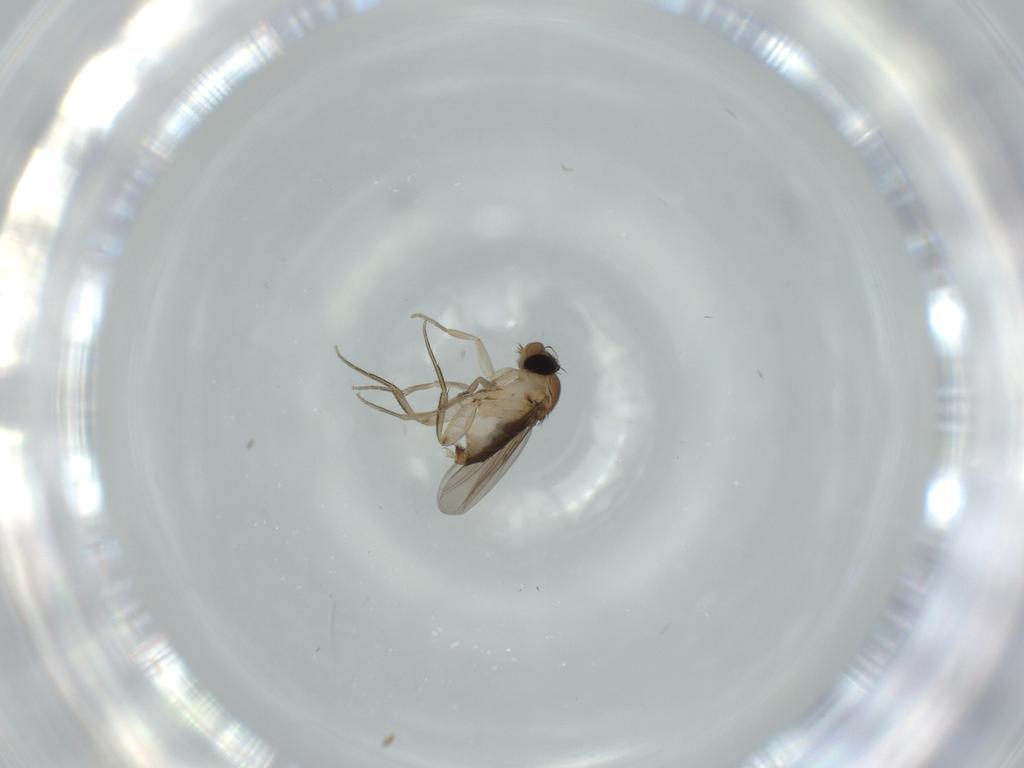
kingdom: Animalia
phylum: Arthropoda
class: Insecta
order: Diptera
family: Phoridae
